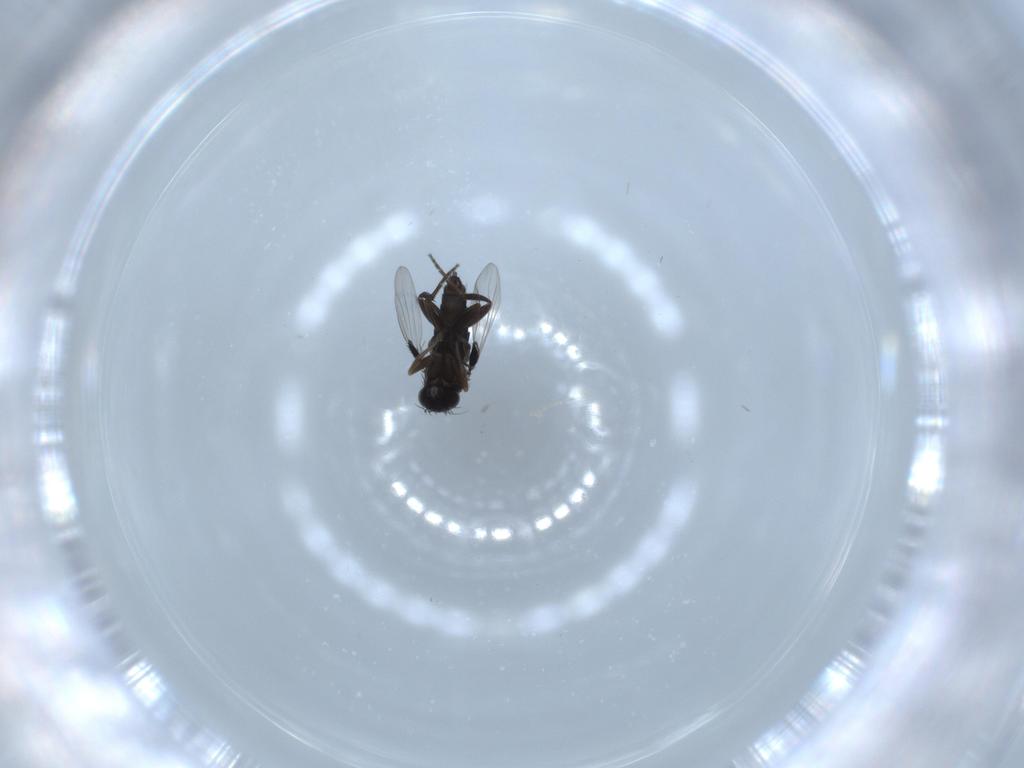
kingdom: Animalia
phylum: Arthropoda
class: Insecta
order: Diptera
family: Phoridae
